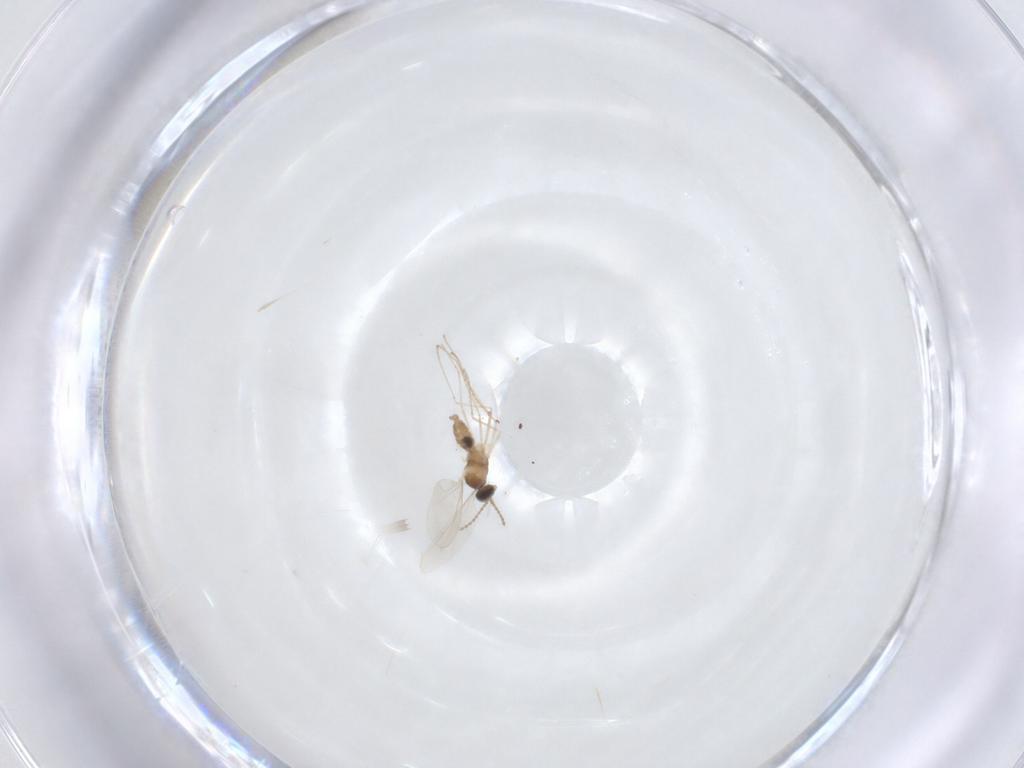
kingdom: Animalia
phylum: Arthropoda
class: Insecta
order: Diptera
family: Cecidomyiidae
